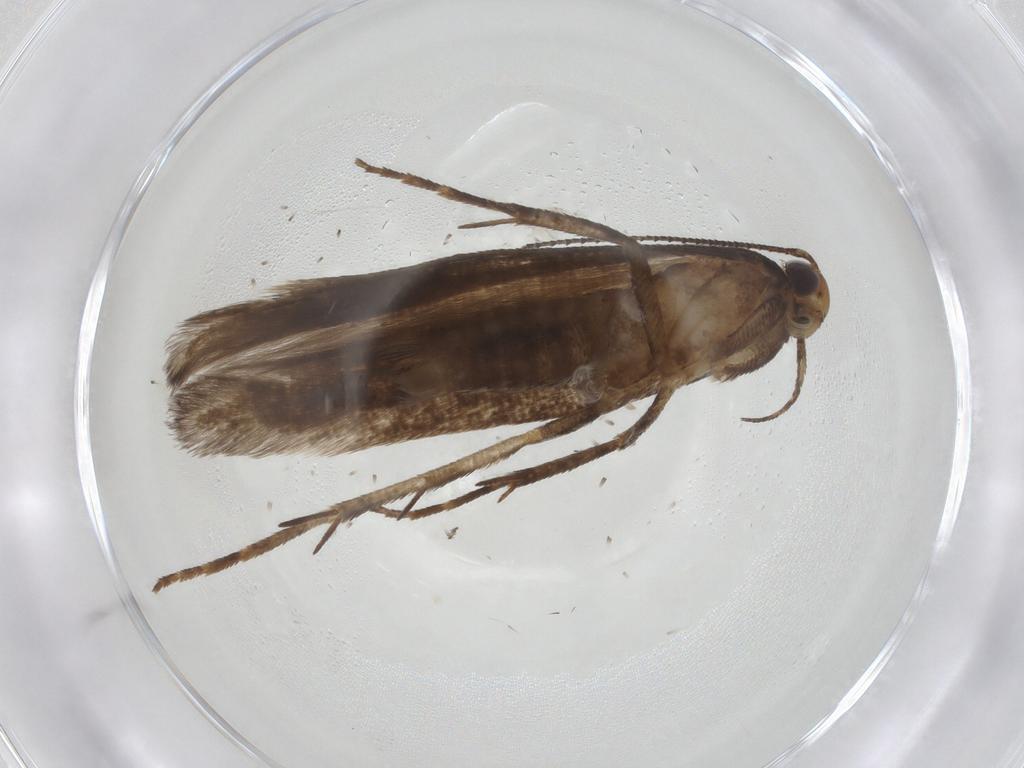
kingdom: Animalia
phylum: Arthropoda
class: Insecta
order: Lepidoptera
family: Gelechiidae
